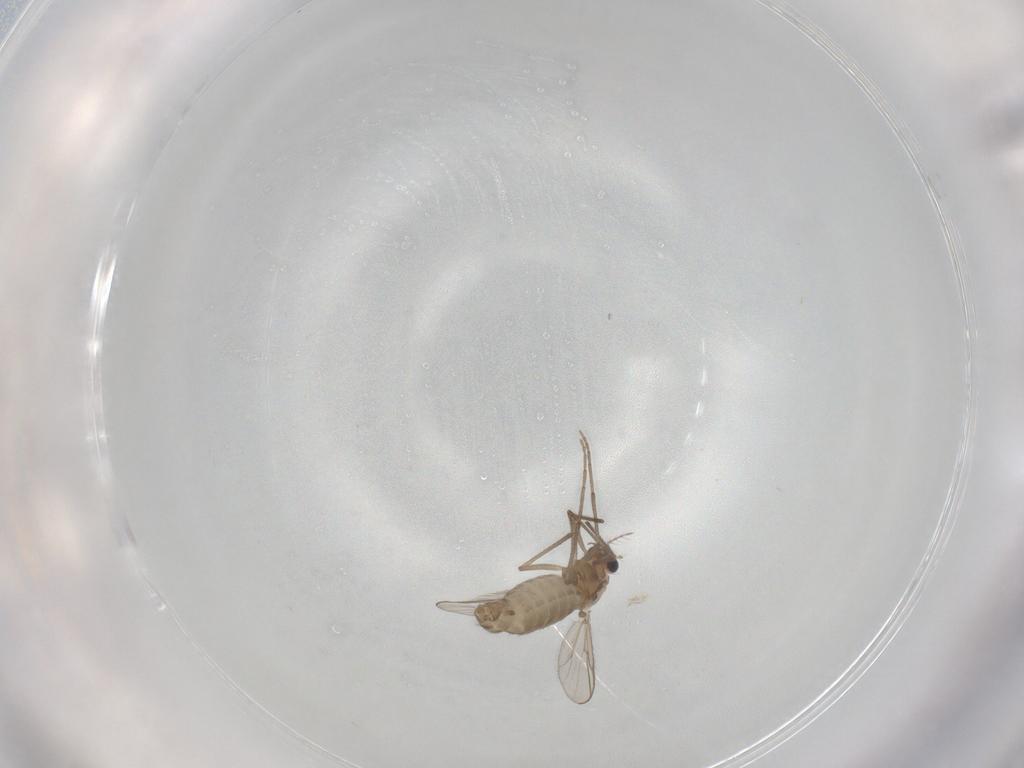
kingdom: Animalia
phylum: Arthropoda
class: Insecta
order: Diptera
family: Chironomidae
